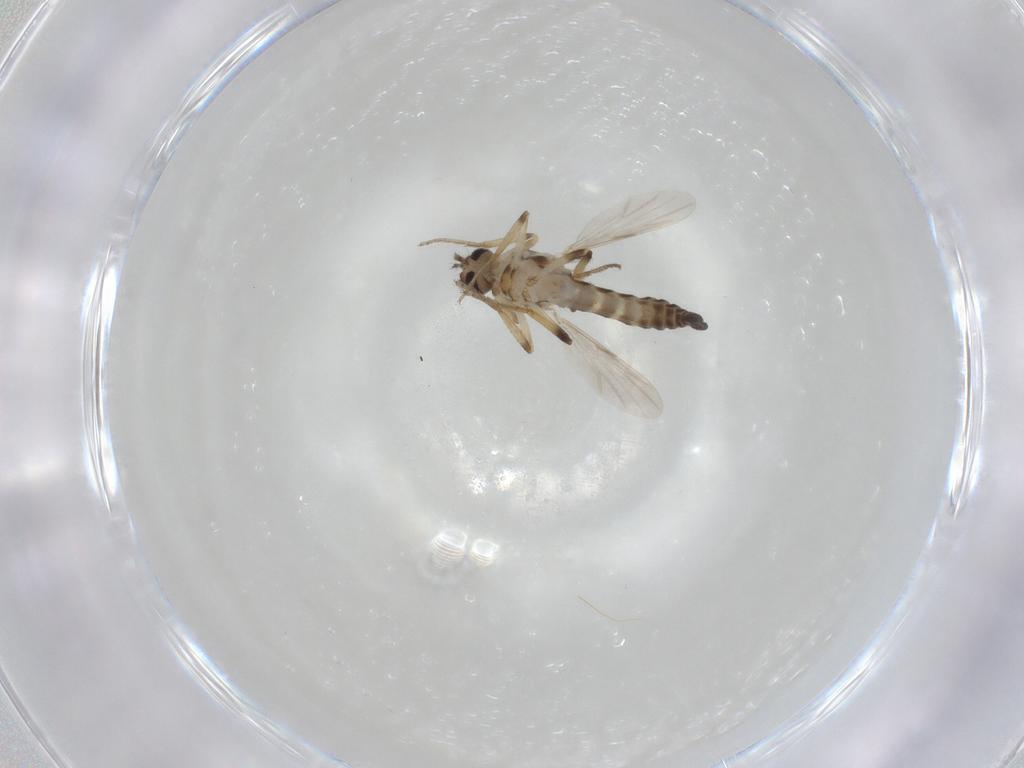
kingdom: Animalia
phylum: Arthropoda
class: Insecta
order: Diptera
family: Ceratopogonidae
